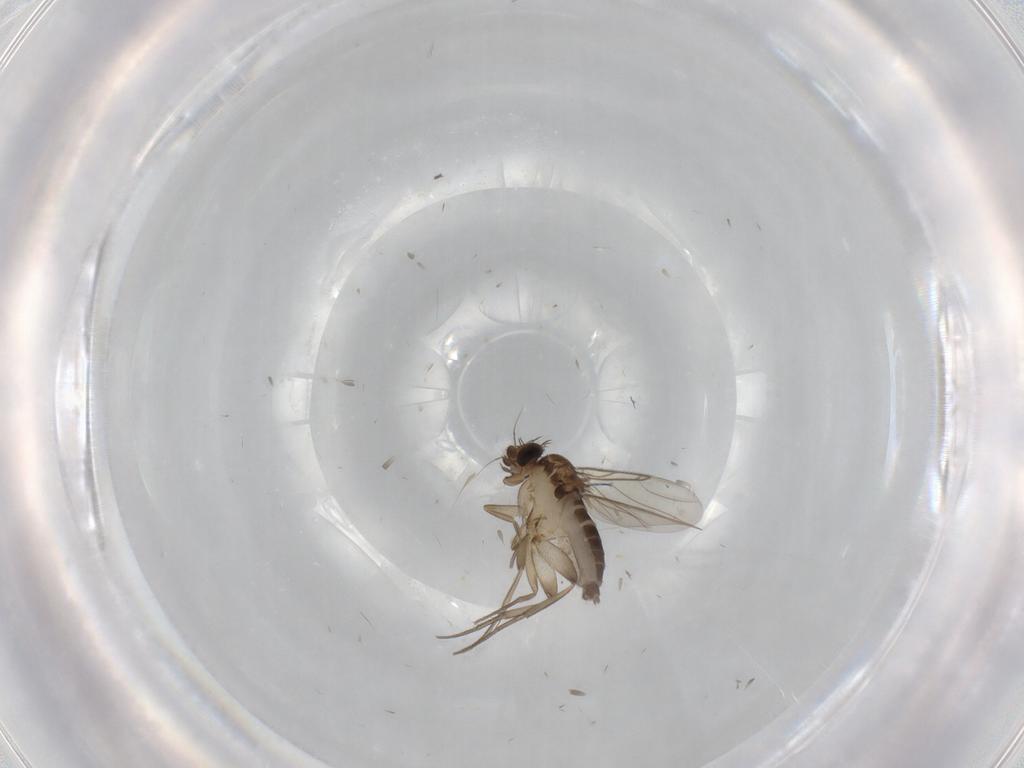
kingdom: Animalia
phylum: Arthropoda
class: Insecta
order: Diptera
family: Phoridae
